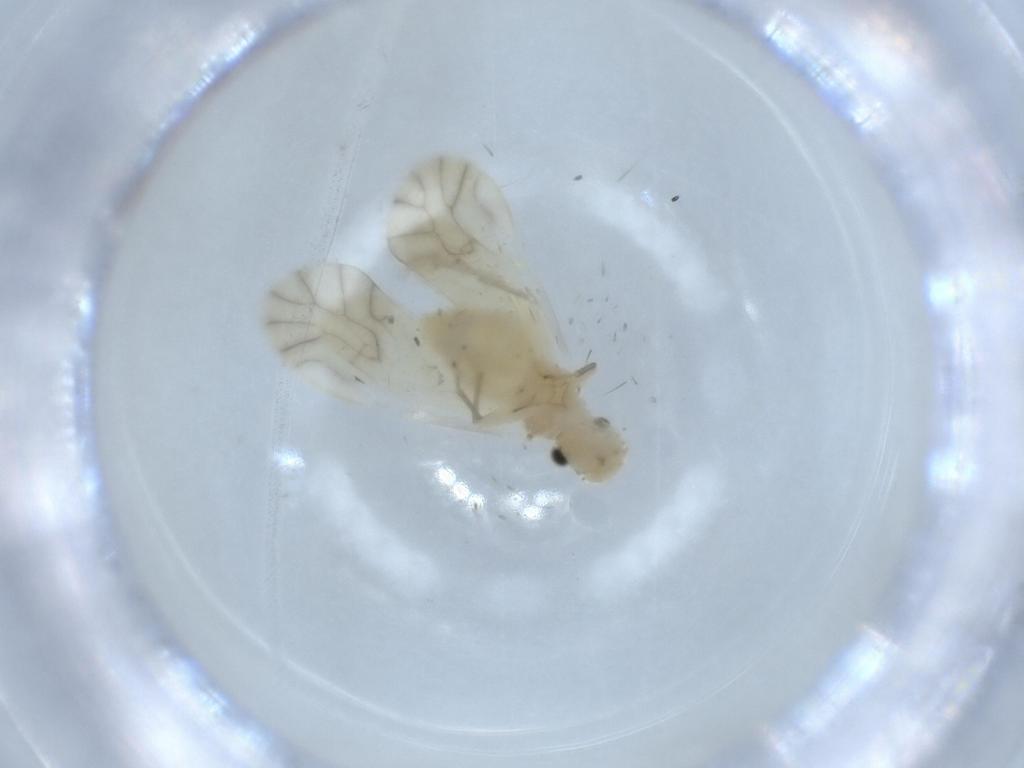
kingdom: Animalia
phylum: Arthropoda
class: Insecta
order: Psocodea
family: Caeciliusidae
